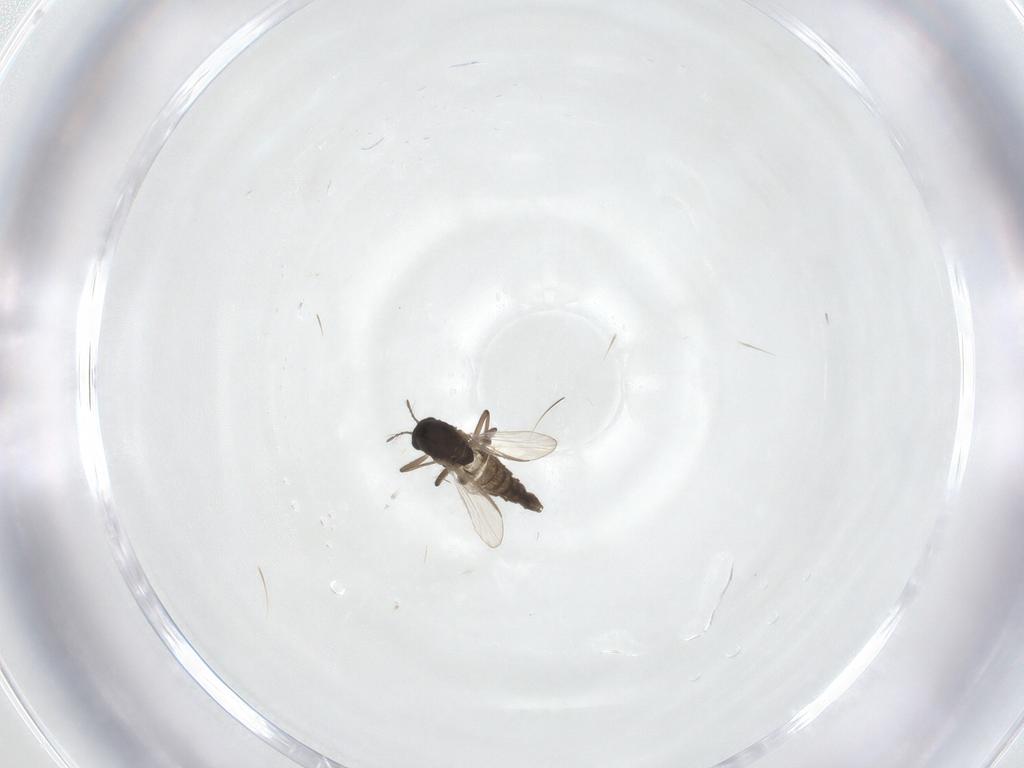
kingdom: Animalia
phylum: Arthropoda
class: Insecta
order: Diptera
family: Chironomidae
